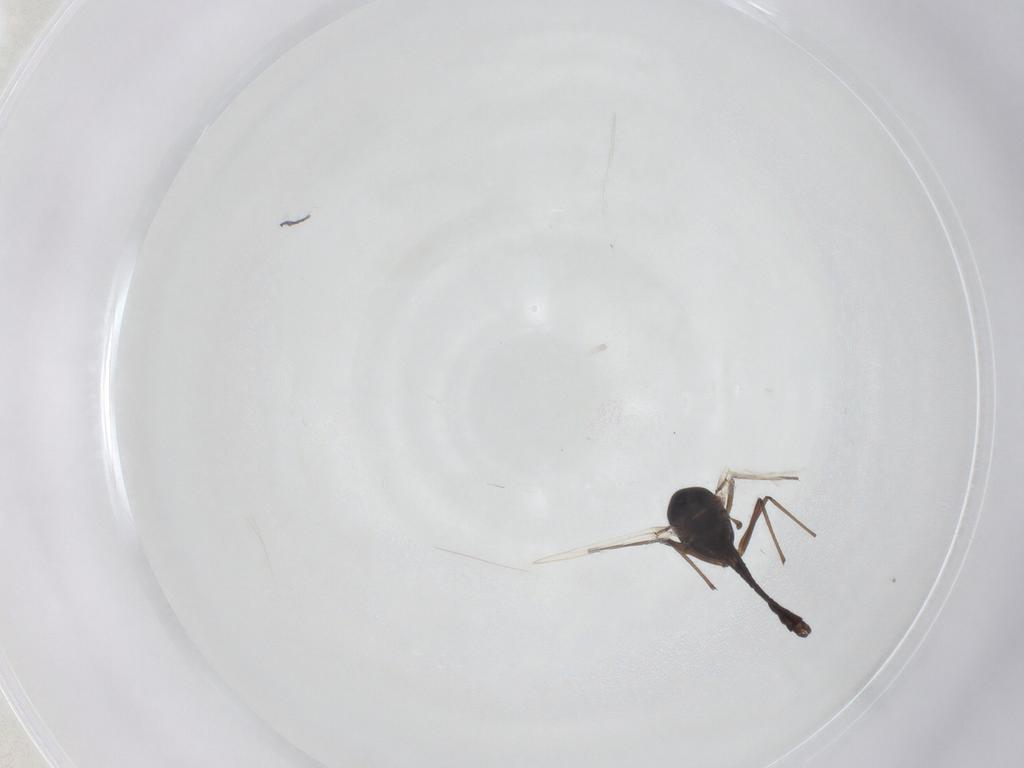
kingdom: Animalia
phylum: Arthropoda
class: Insecta
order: Diptera
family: Chironomidae
